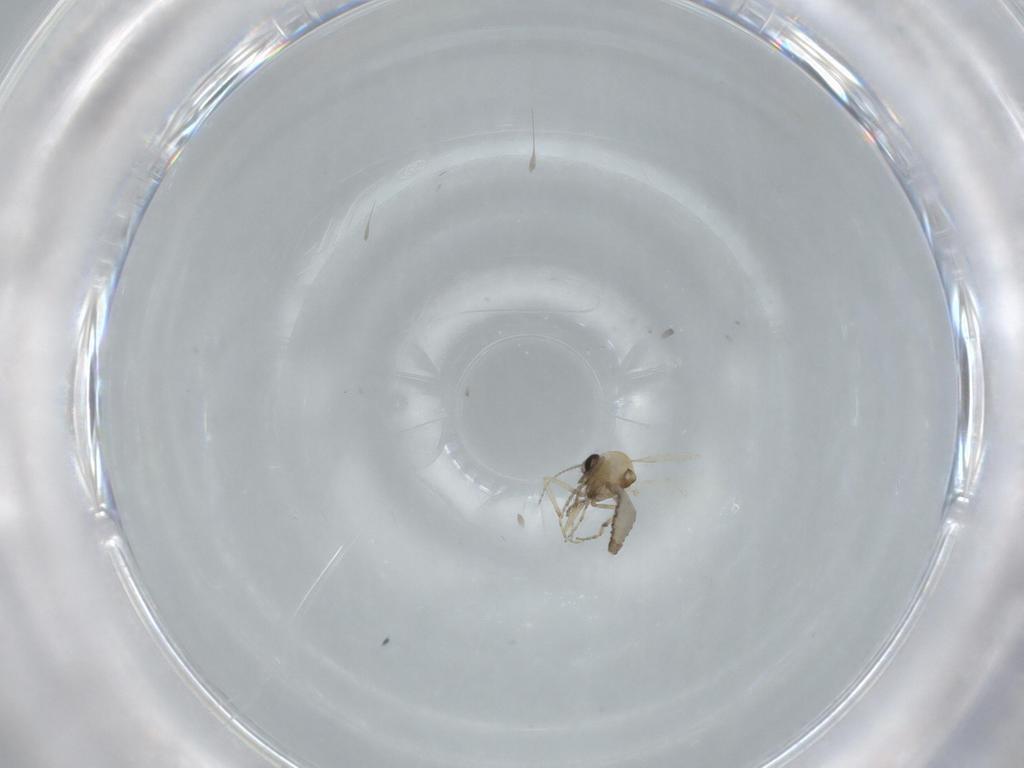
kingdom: Animalia
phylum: Arthropoda
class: Insecta
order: Diptera
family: Ceratopogonidae
